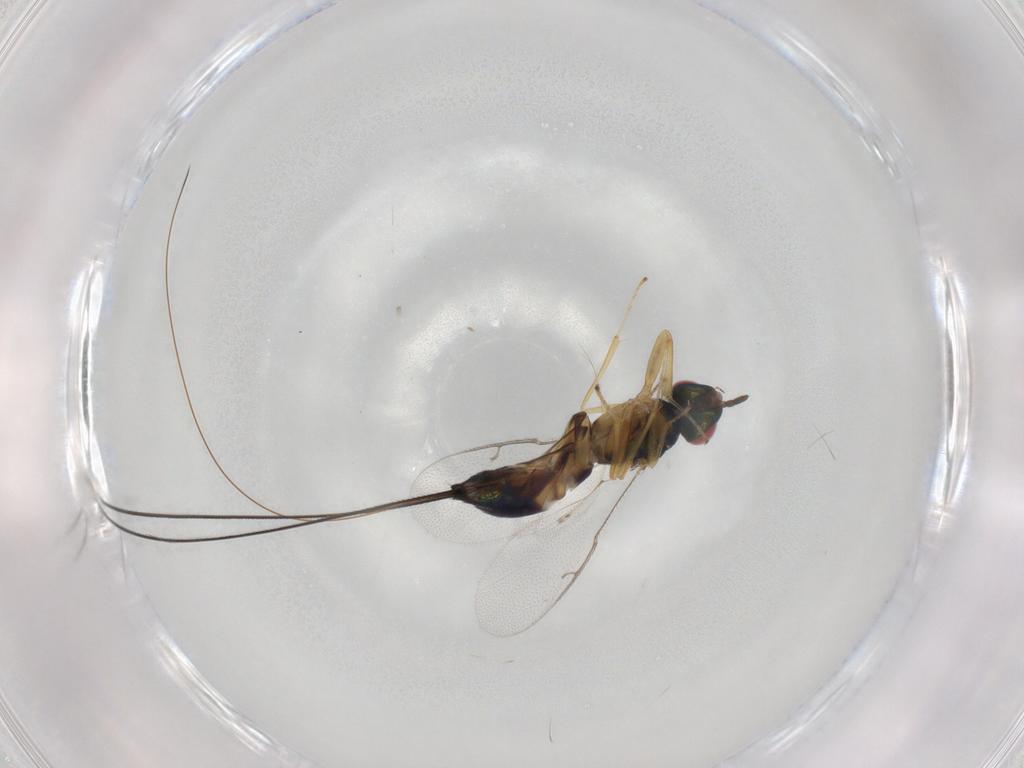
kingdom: Animalia
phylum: Arthropoda
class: Insecta
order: Hymenoptera
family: Pteromalidae
